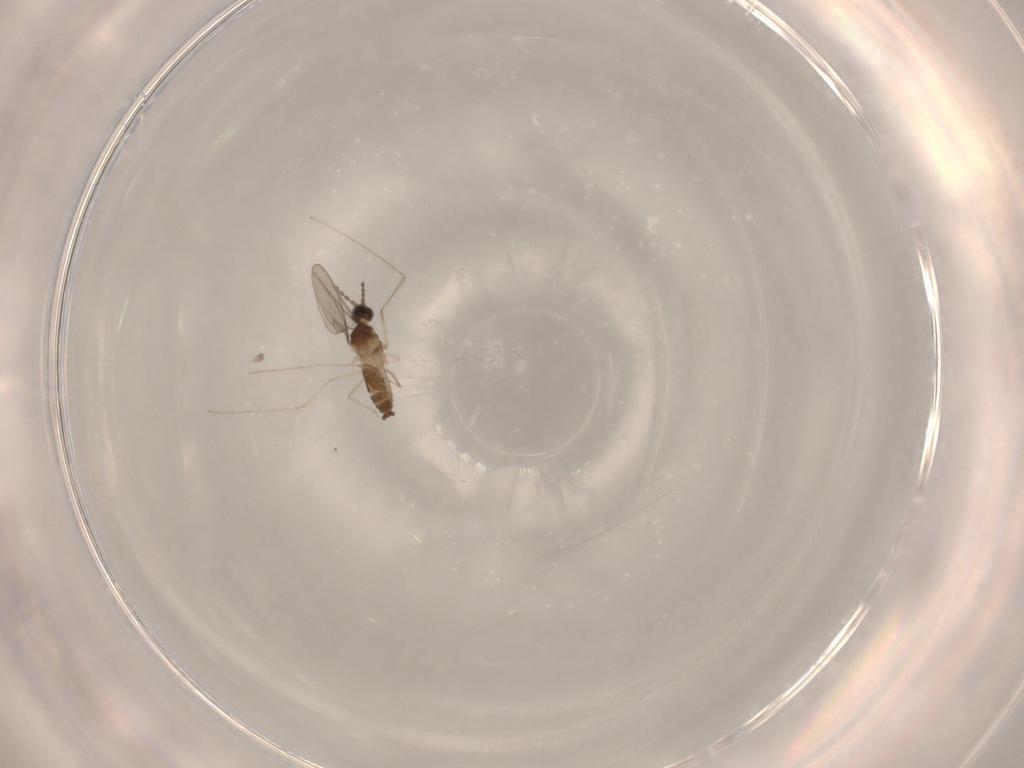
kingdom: Animalia
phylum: Arthropoda
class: Insecta
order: Diptera
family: Cecidomyiidae
